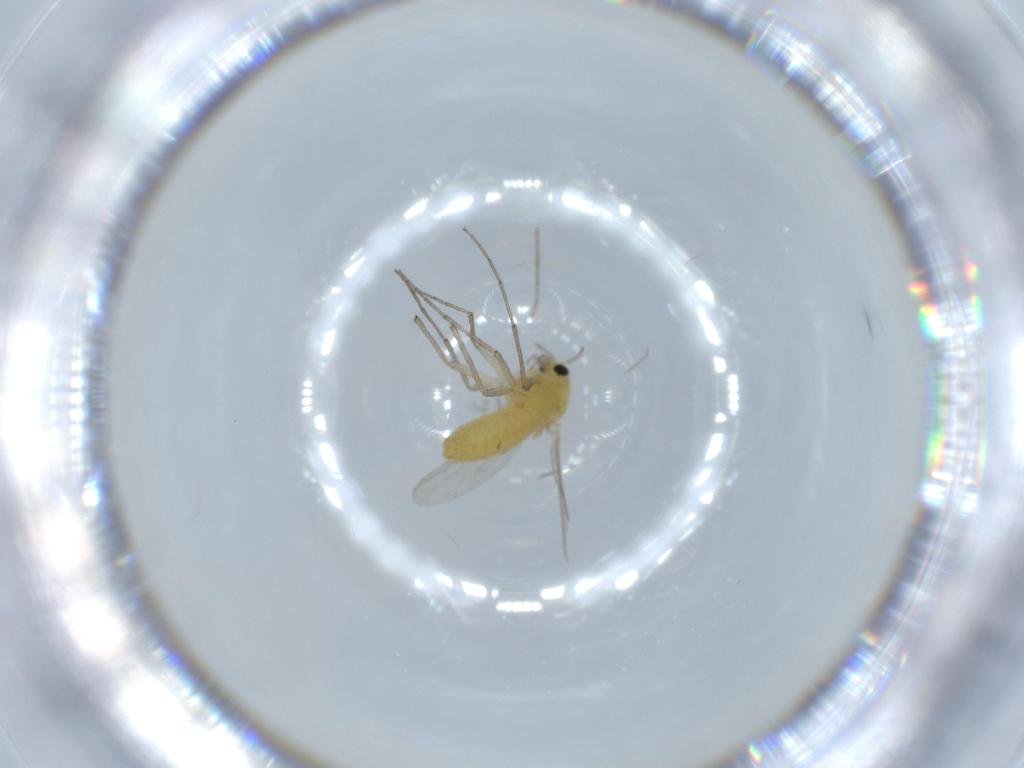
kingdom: Animalia
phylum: Arthropoda
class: Insecta
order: Diptera
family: Chironomidae
